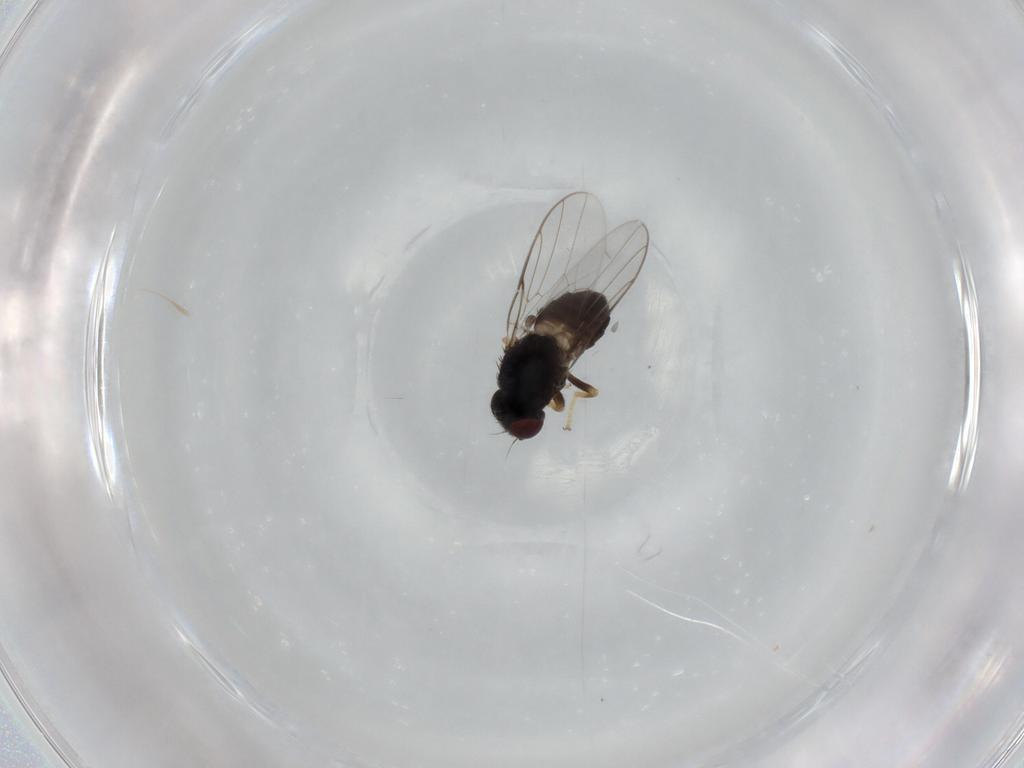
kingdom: Animalia
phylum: Arthropoda
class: Insecta
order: Diptera
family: Chloropidae
